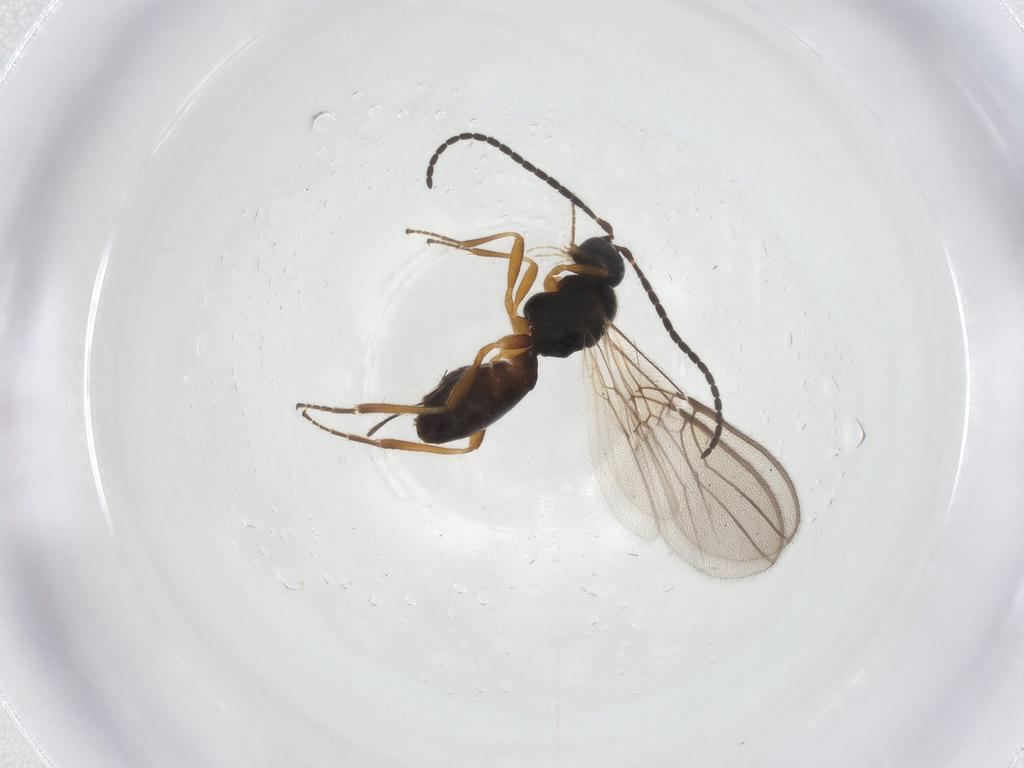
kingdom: Animalia
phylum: Arthropoda
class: Insecta
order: Hymenoptera
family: Braconidae
